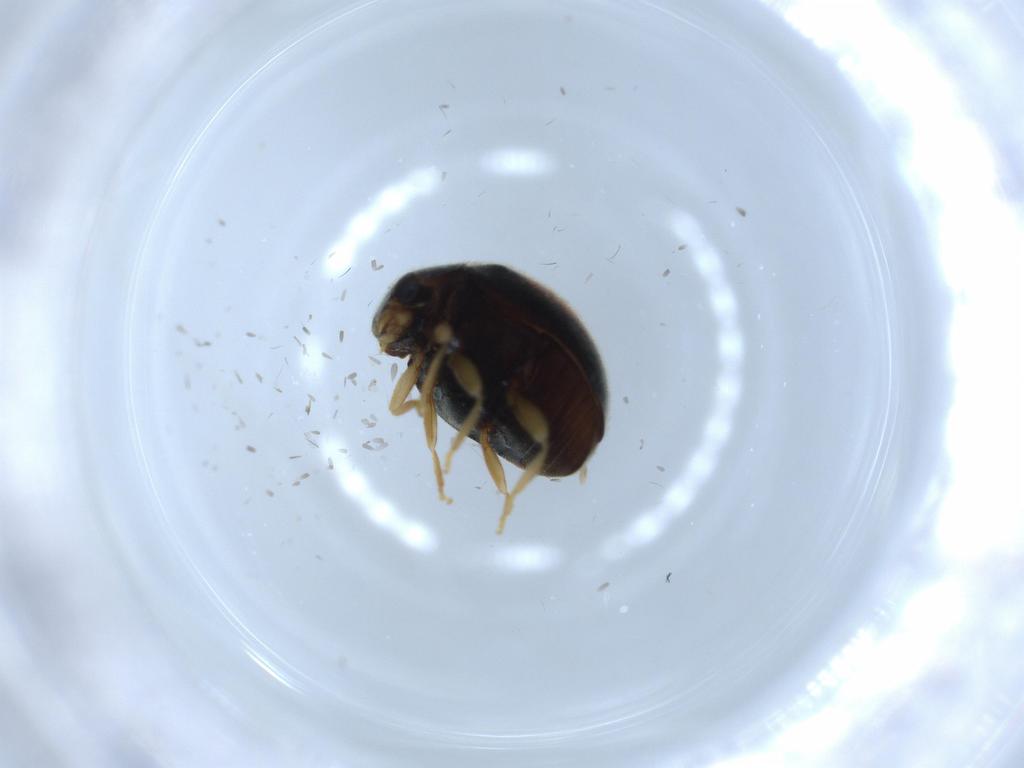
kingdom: Animalia
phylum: Arthropoda
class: Insecta
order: Coleoptera
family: Coccinellidae
